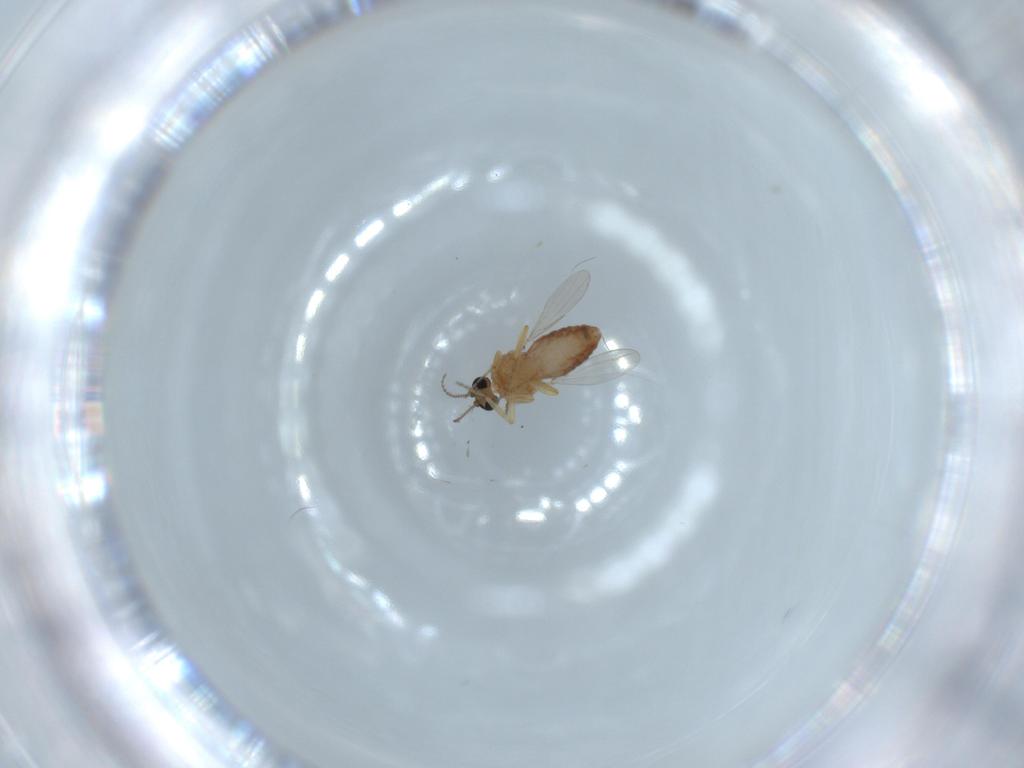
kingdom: Animalia
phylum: Arthropoda
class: Insecta
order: Diptera
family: Ceratopogonidae
